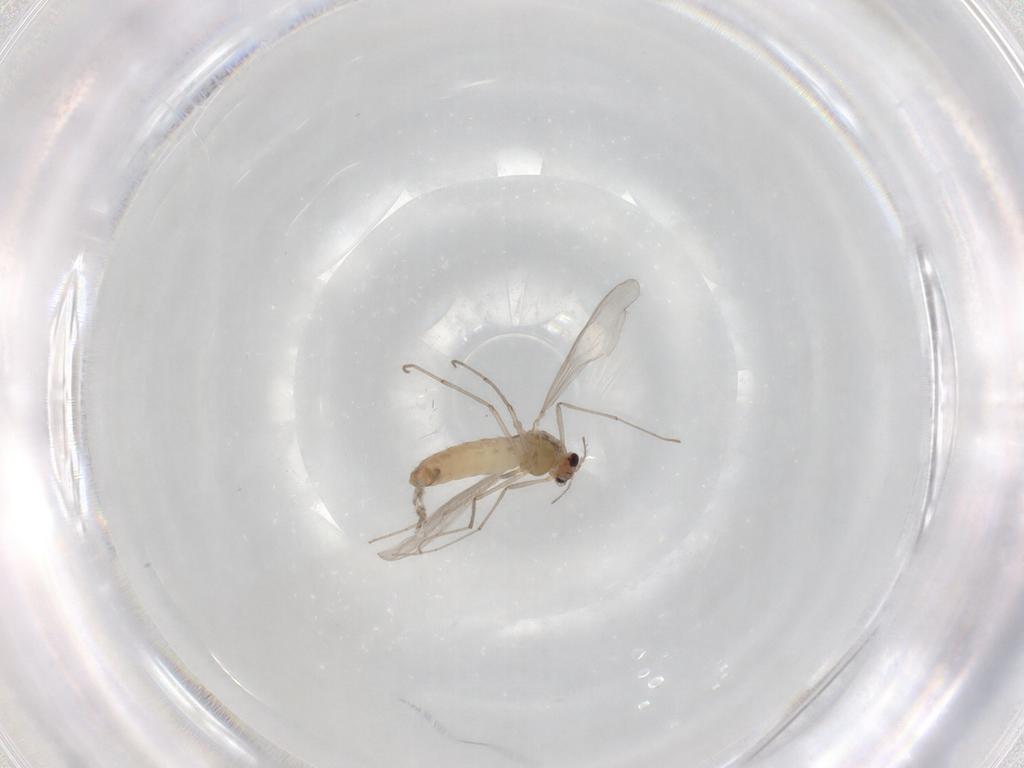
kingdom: Animalia
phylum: Arthropoda
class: Insecta
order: Diptera
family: Chironomidae
